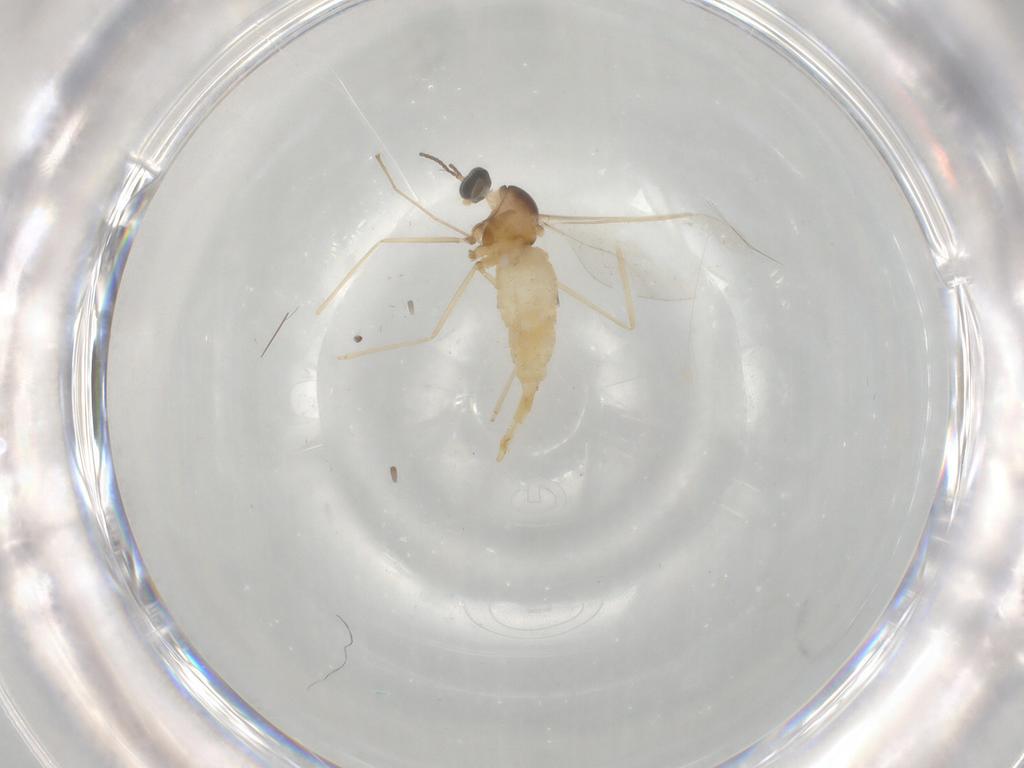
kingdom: Animalia
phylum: Arthropoda
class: Insecta
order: Diptera
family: Cecidomyiidae
